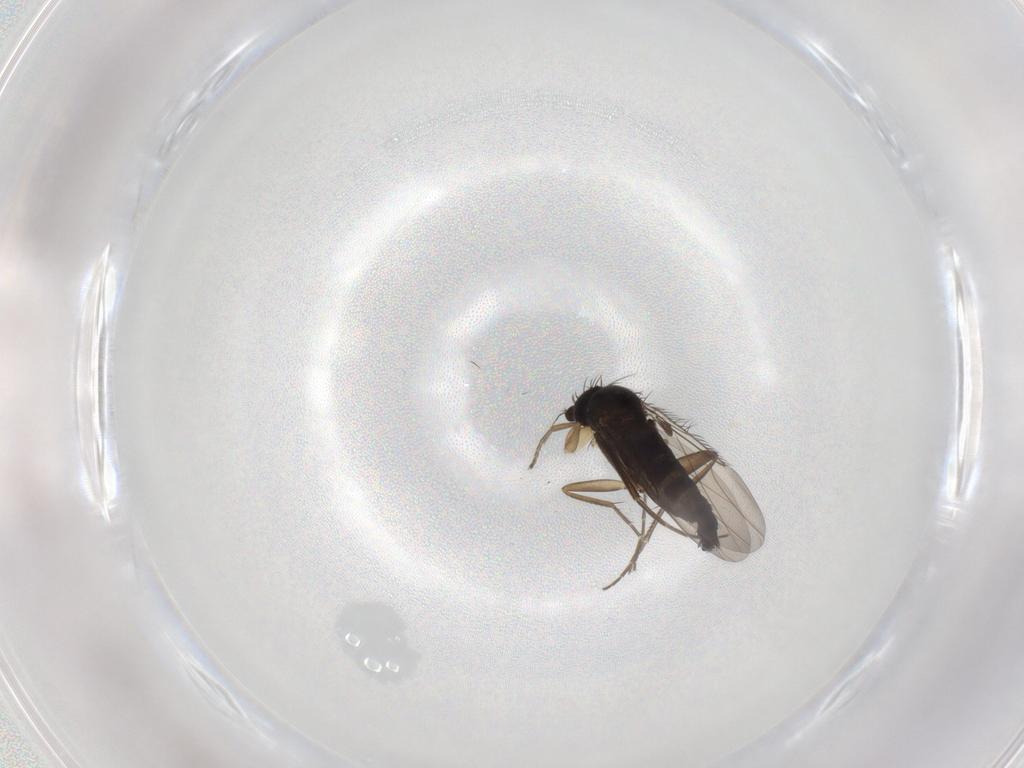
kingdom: Animalia
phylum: Arthropoda
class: Insecta
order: Diptera
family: Phoridae
